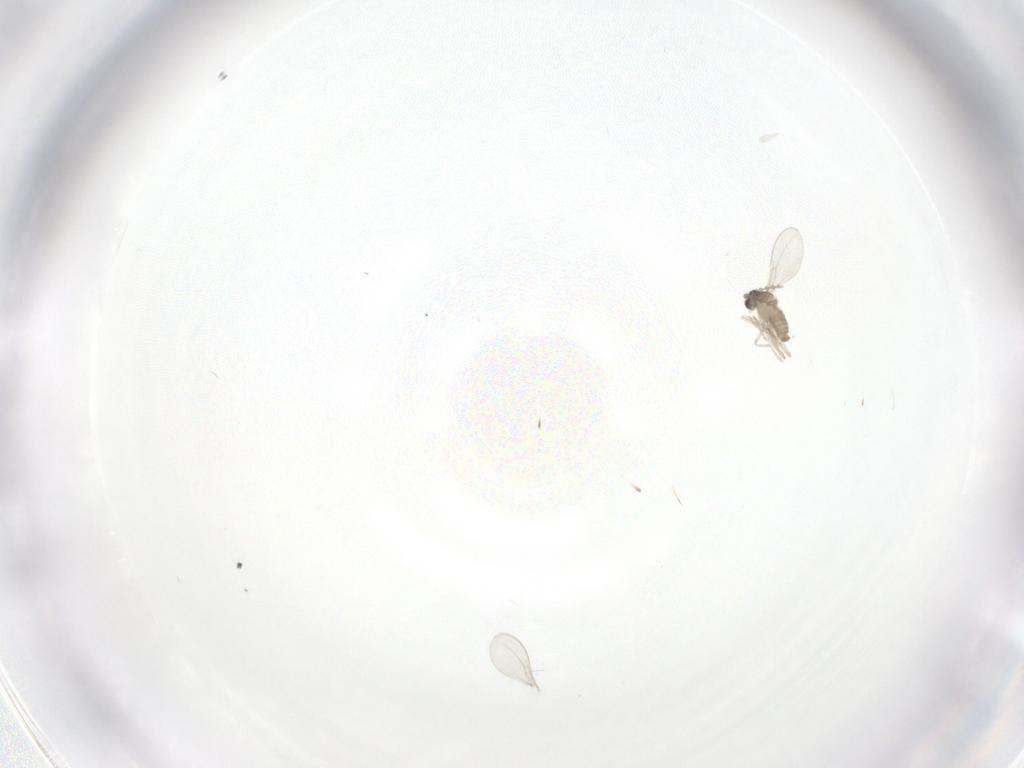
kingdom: Animalia
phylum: Arthropoda
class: Insecta
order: Diptera
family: Cecidomyiidae
